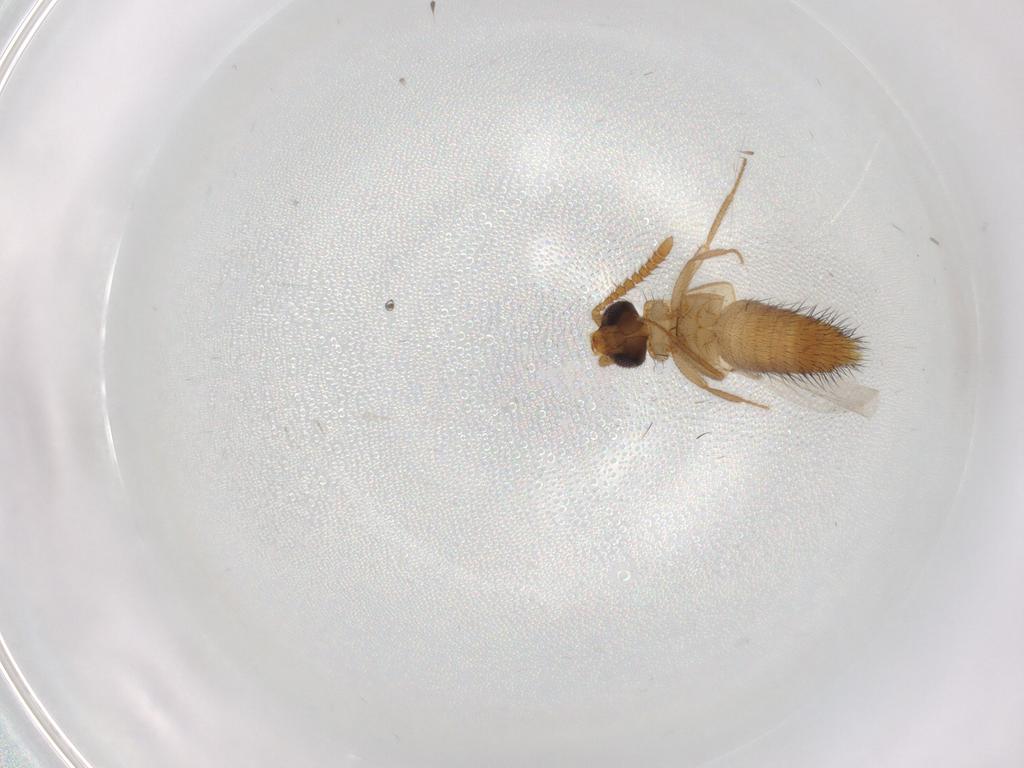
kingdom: Animalia
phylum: Arthropoda
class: Insecta
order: Coleoptera
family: Staphylinidae
